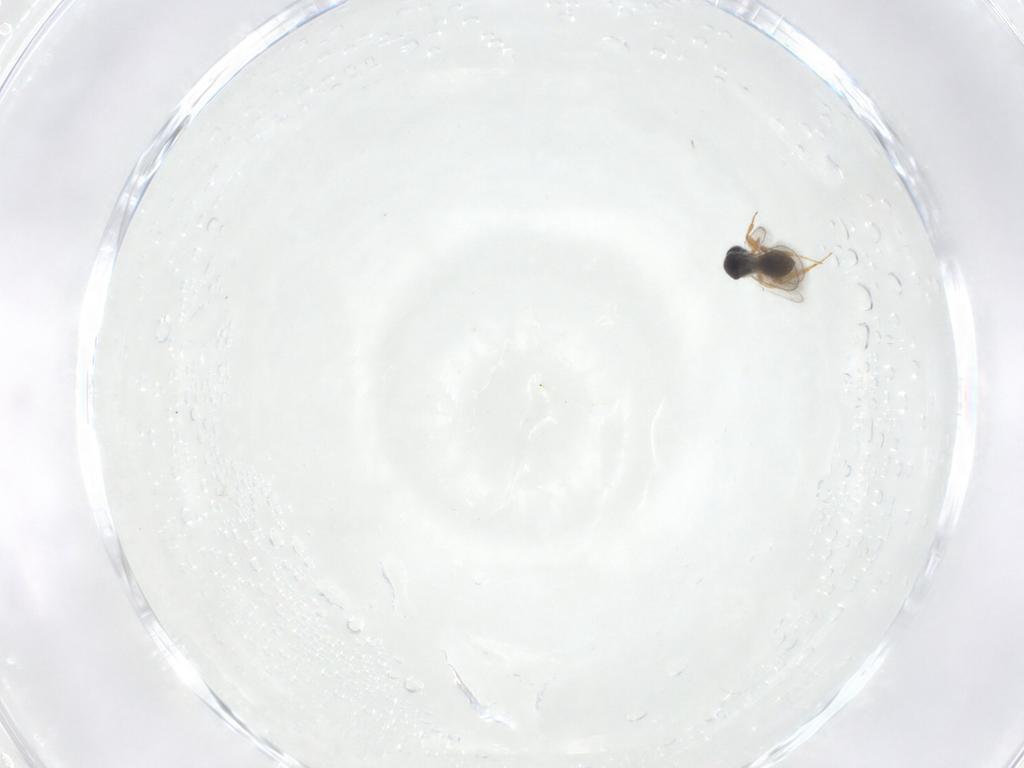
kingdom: Animalia
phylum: Arthropoda
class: Insecta
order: Hymenoptera
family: Platygastridae
